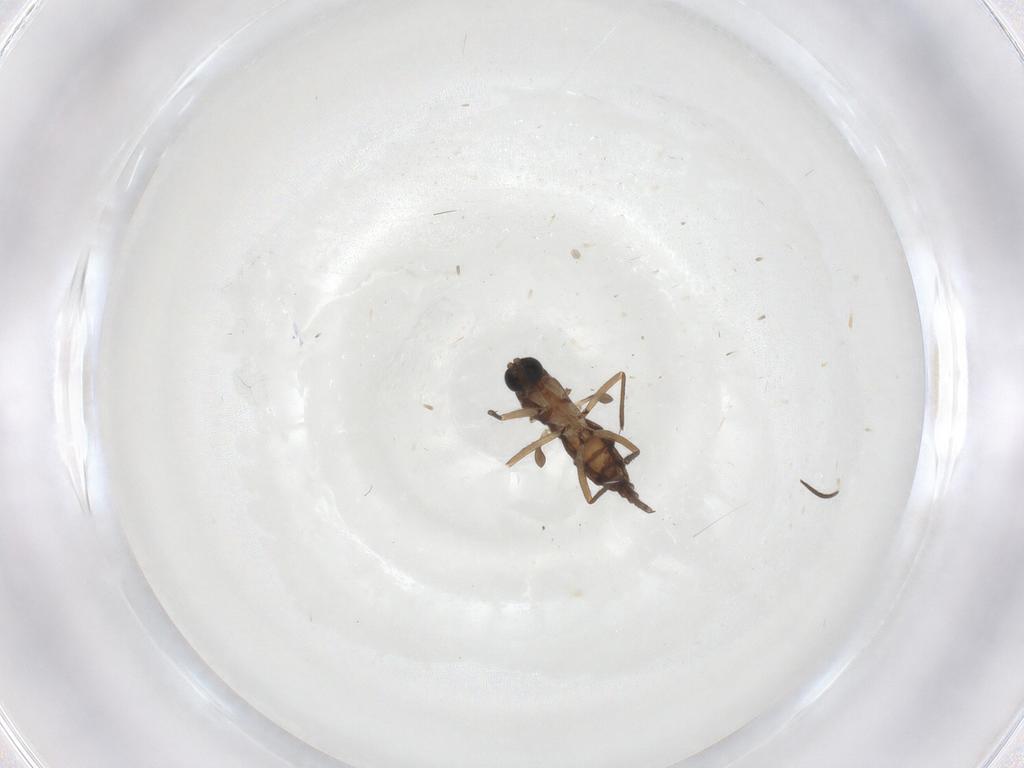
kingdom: Animalia
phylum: Arthropoda
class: Insecta
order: Diptera
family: Sciaridae
